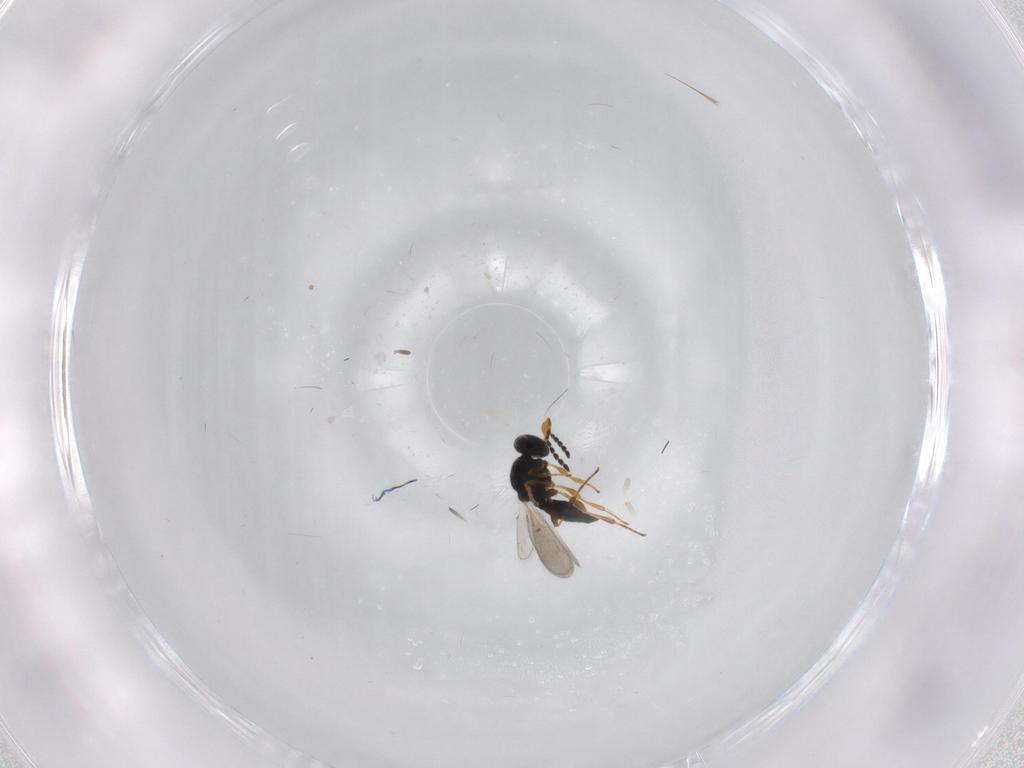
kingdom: Animalia
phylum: Arthropoda
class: Insecta
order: Hymenoptera
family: Platygastridae
